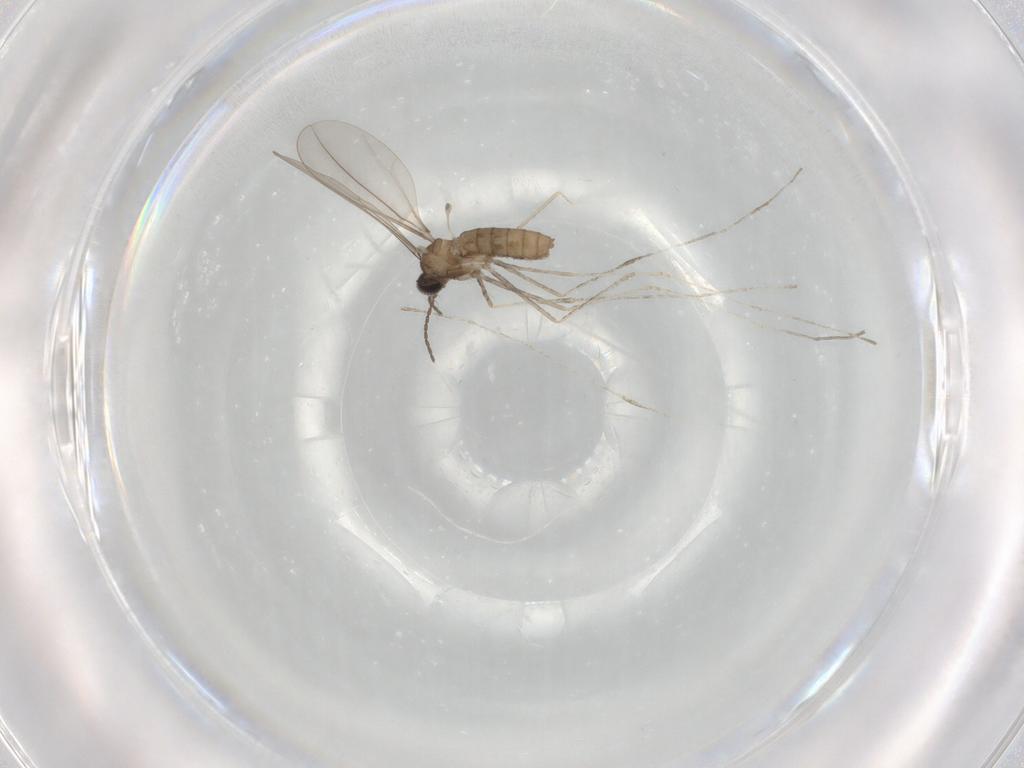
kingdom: Animalia
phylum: Arthropoda
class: Insecta
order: Diptera
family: Cecidomyiidae
